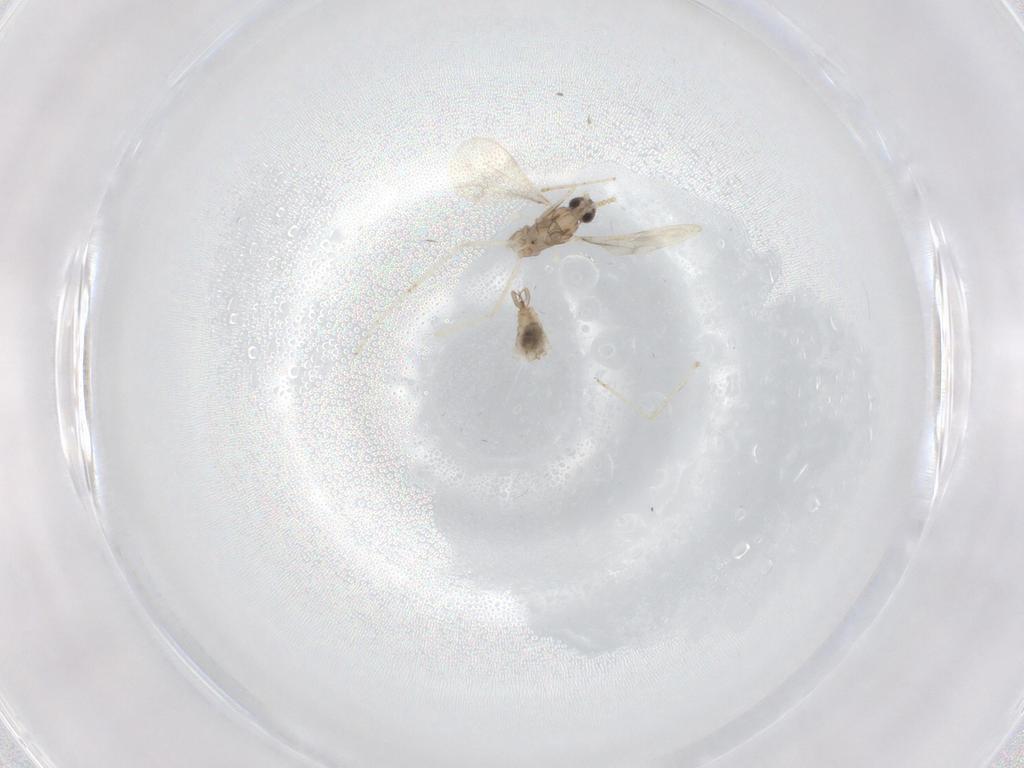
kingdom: Animalia
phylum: Arthropoda
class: Insecta
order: Diptera
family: Cecidomyiidae
